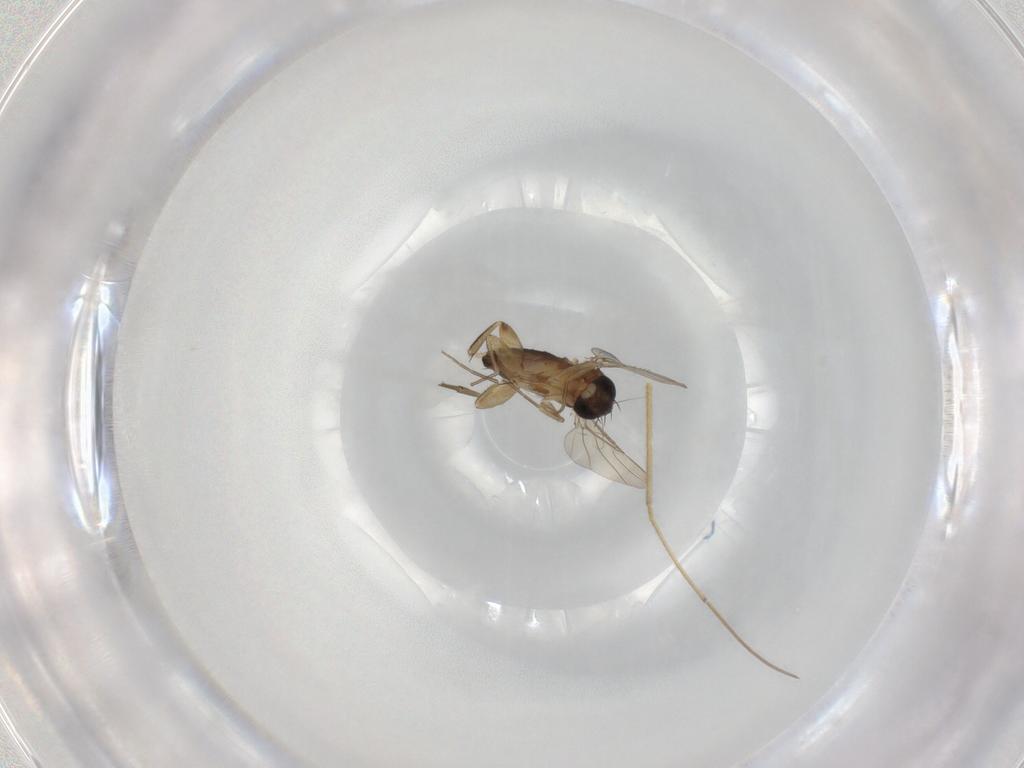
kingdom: Animalia
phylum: Arthropoda
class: Insecta
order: Diptera
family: Phoridae
